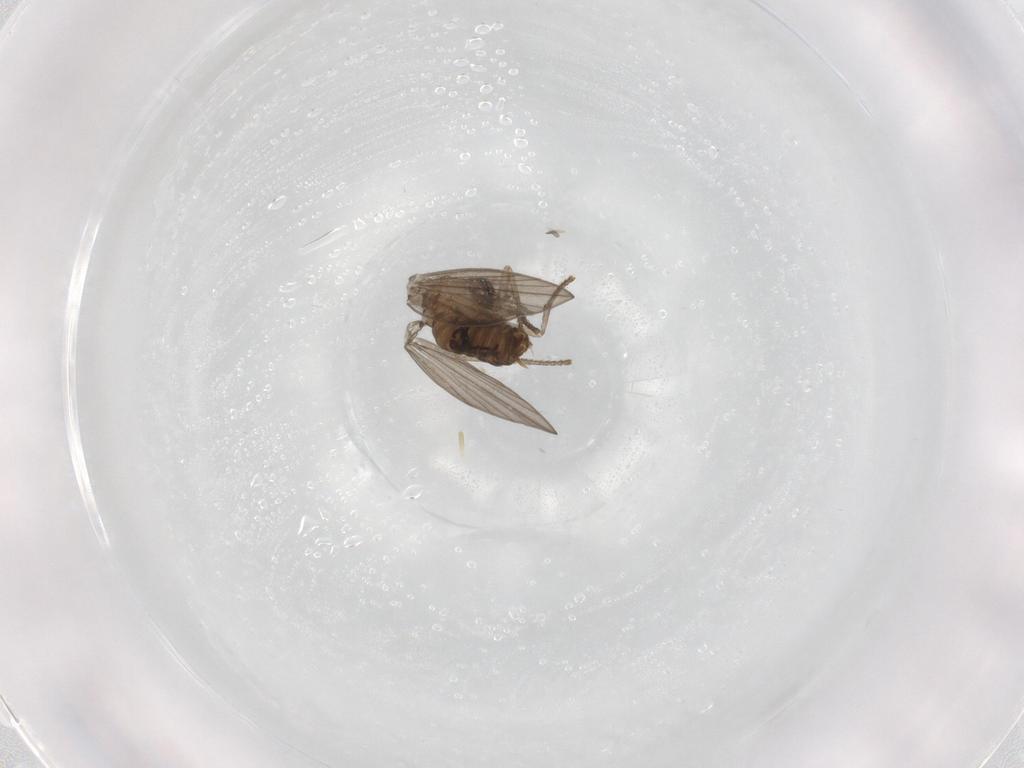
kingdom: Animalia
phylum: Arthropoda
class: Insecta
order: Diptera
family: Psychodidae
